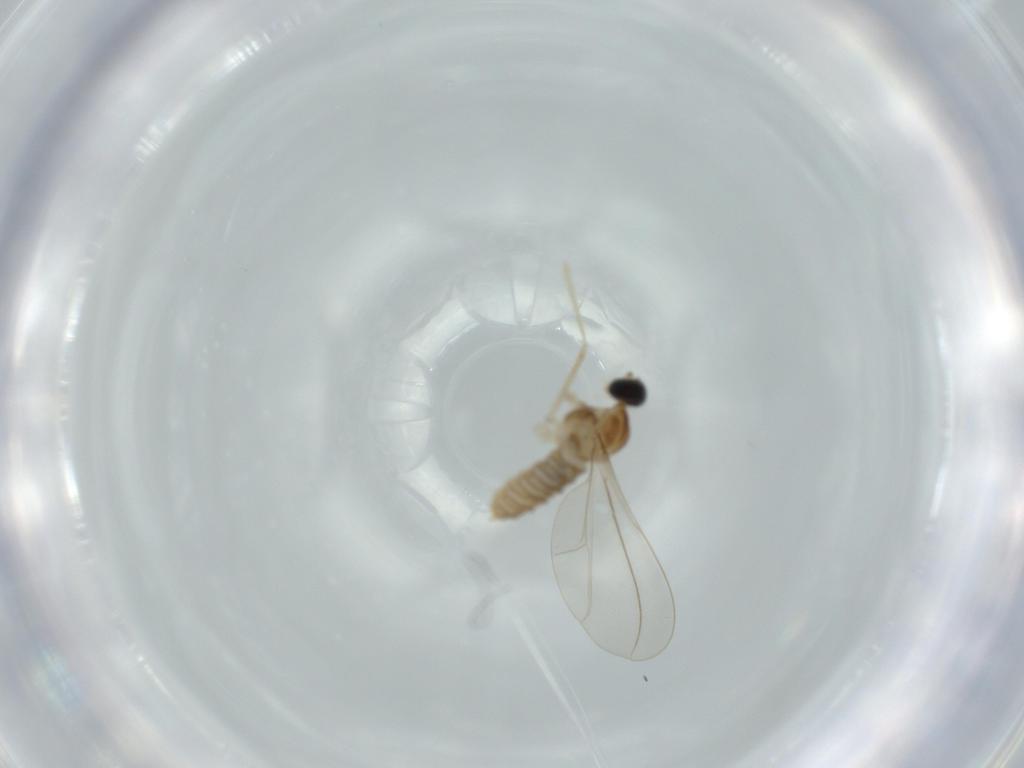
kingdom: Animalia
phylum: Arthropoda
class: Insecta
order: Diptera
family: Cecidomyiidae
